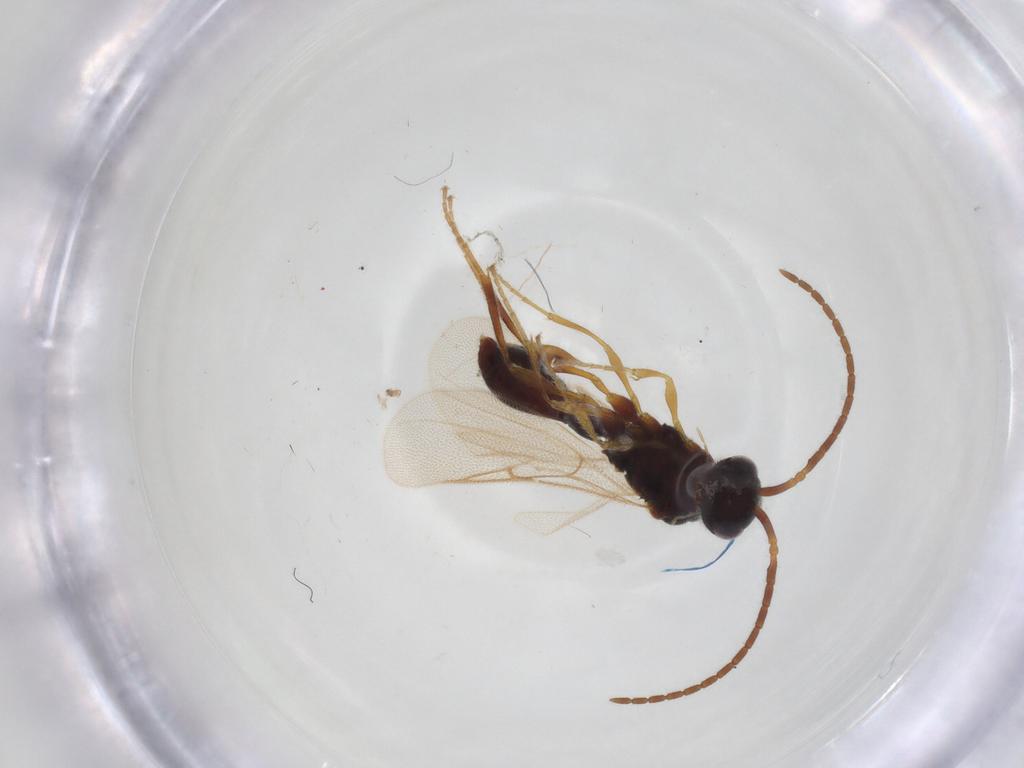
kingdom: Animalia
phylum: Arthropoda
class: Insecta
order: Hymenoptera
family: Diapriidae
